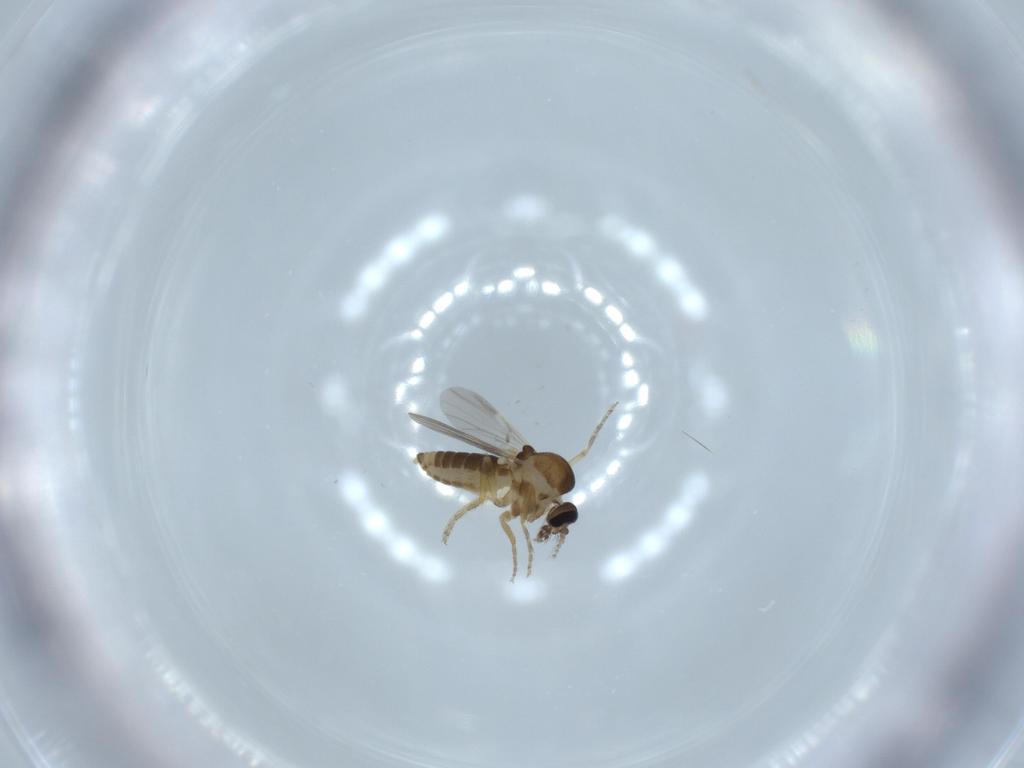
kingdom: Animalia
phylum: Arthropoda
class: Insecta
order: Diptera
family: Ceratopogonidae
